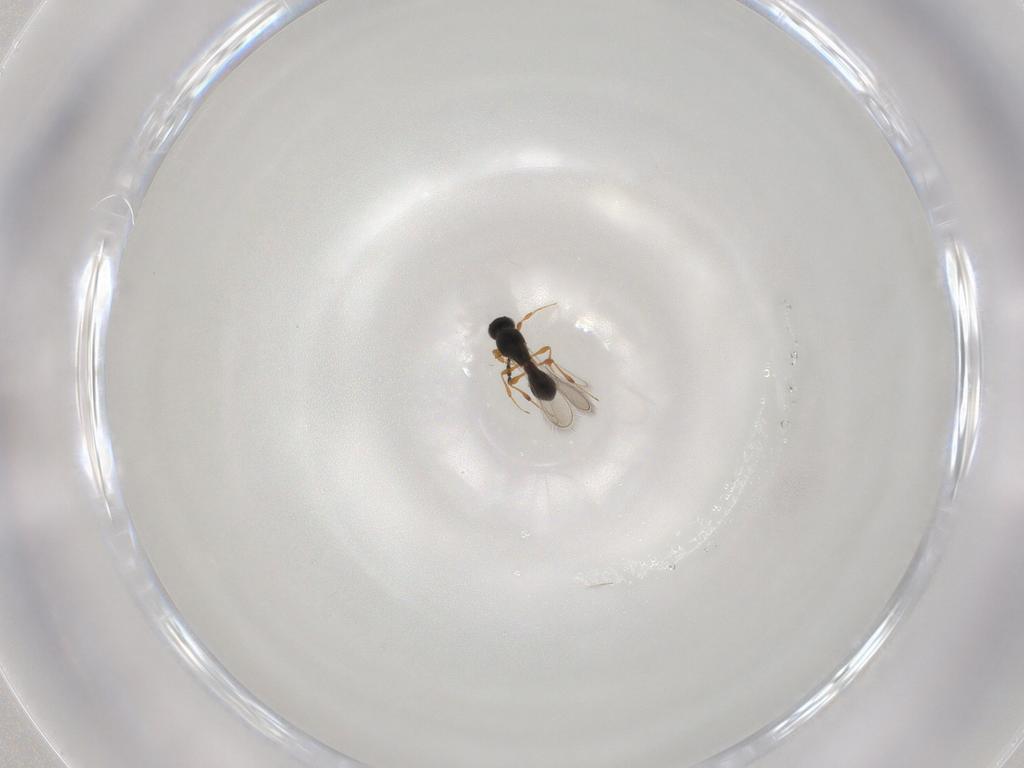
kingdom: Animalia
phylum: Arthropoda
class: Insecta
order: Hymenoptera
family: Platygastridae
